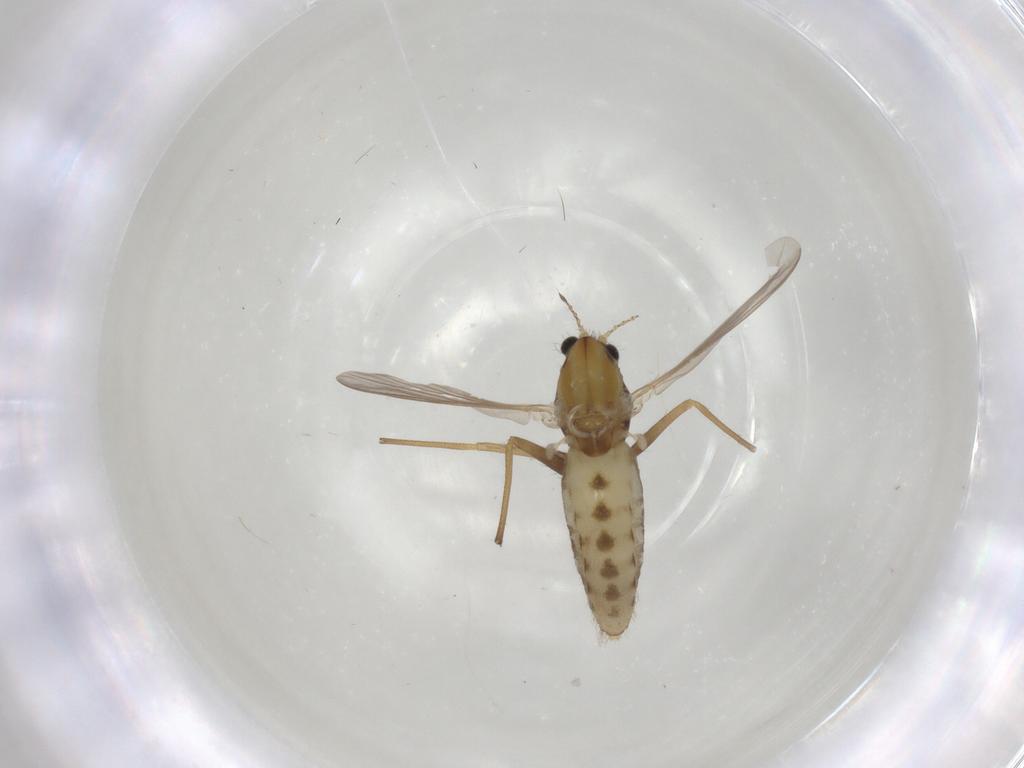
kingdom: Animalia
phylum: Arthropoda
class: Insecta
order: Diptera
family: Chironomidae
